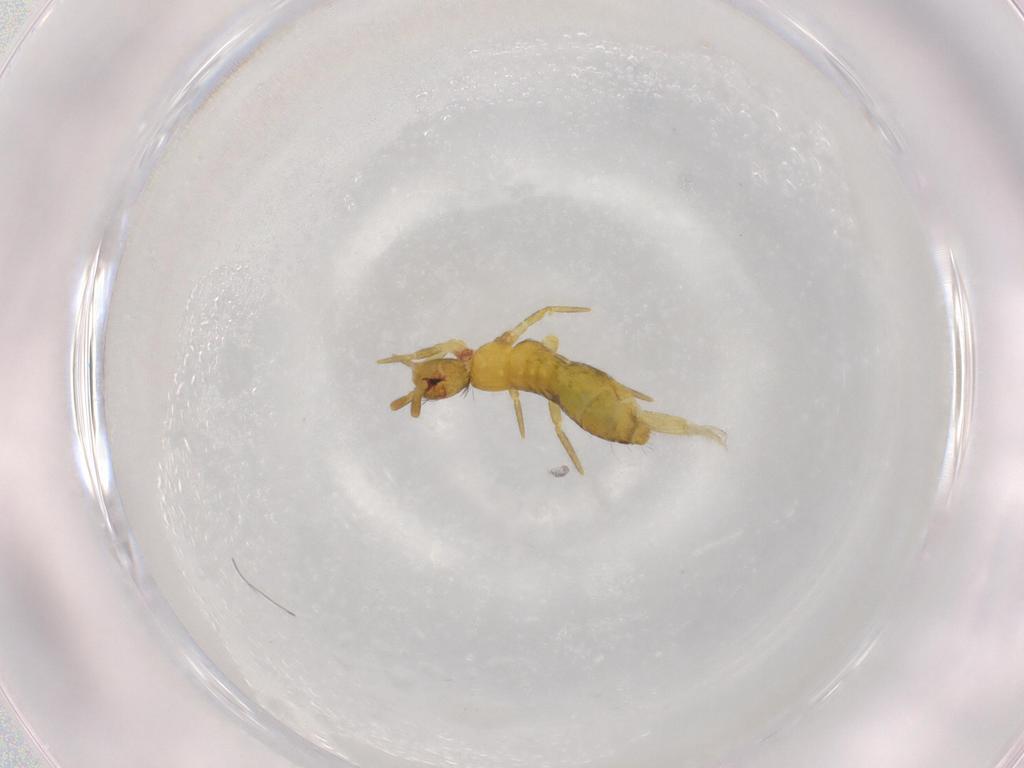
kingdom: Animalia
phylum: Arthropoda
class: Collembola
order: Entomobryomorpha
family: Tomoceridae
